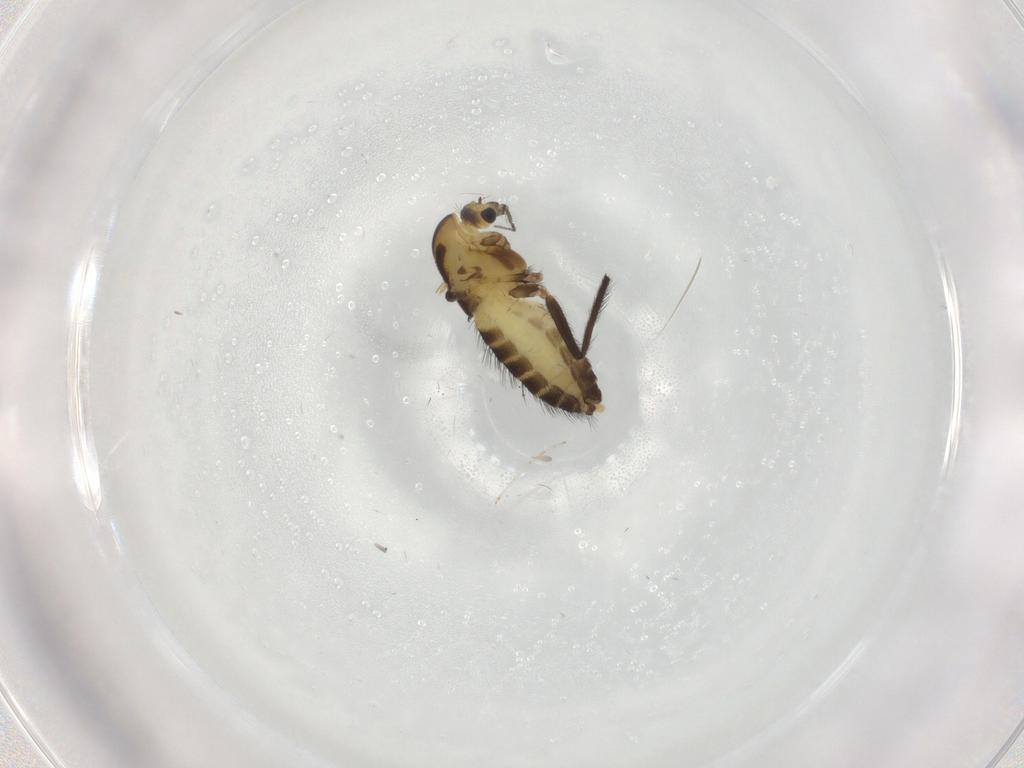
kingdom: Animalia
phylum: Arthropoda
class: Insecta
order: Diptera
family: Chironomidae
